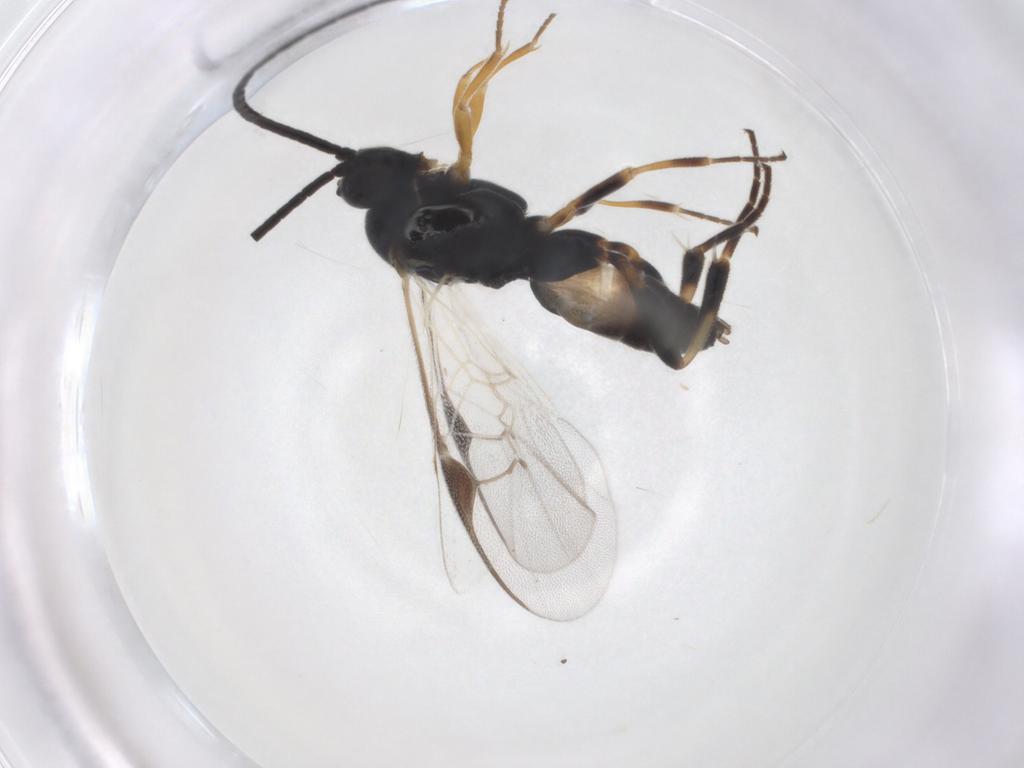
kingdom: Animalia
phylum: Arthropoda
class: Insecta
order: Hymenoptera
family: Braconidae
